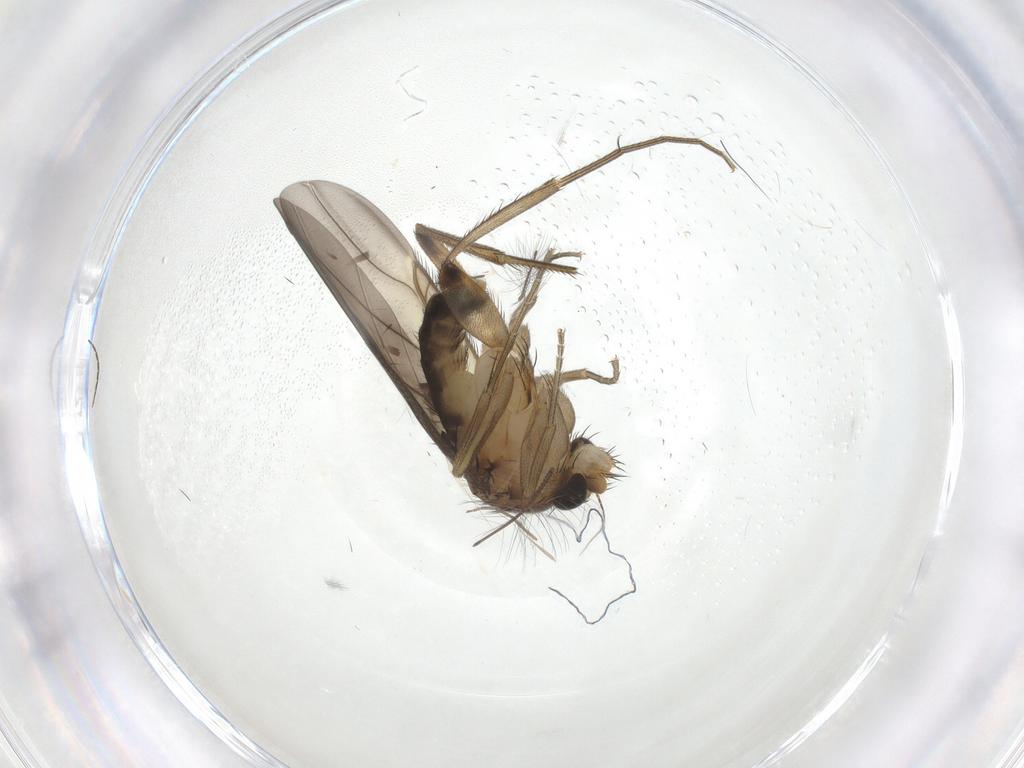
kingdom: Animalia
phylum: Arthropoda
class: Insecta
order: Diptera
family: Phoridae
